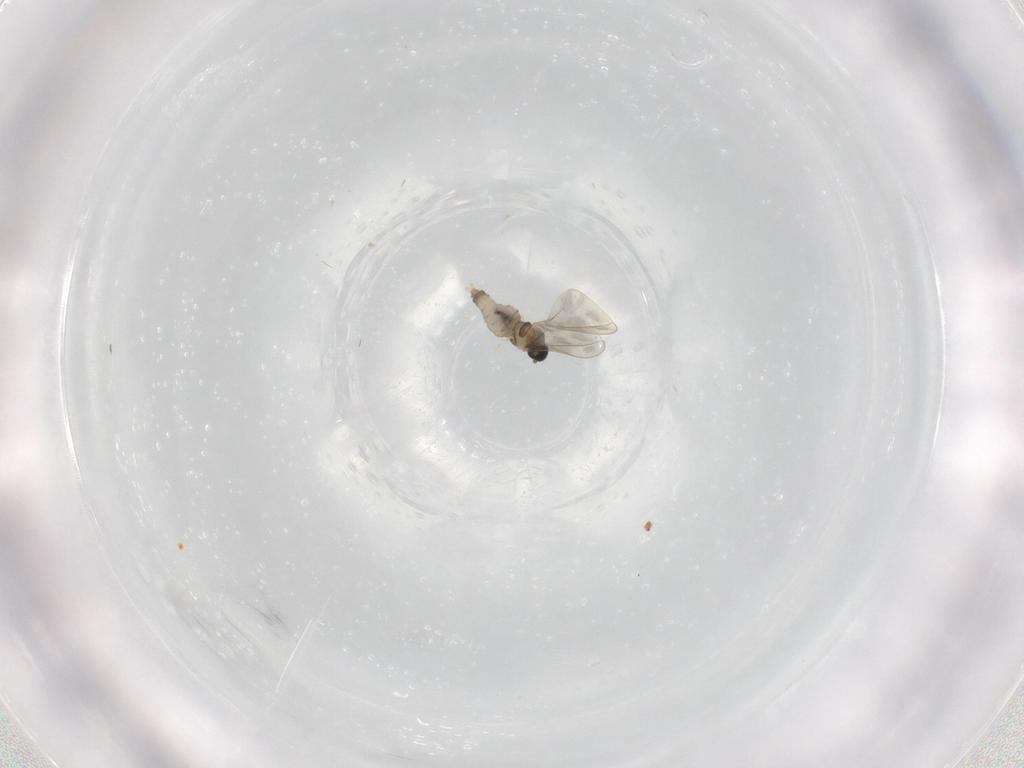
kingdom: Animalia
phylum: Arthropoda
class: Insecta
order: Diptera
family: Cecidomyiidae
